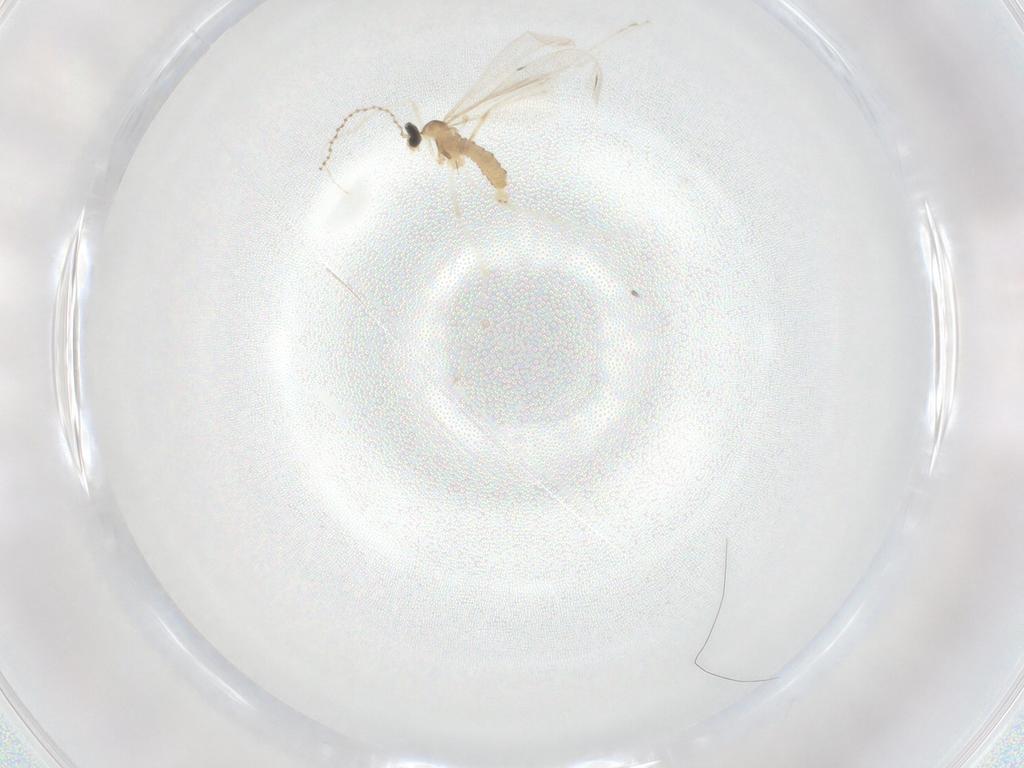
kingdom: Animalia
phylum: Arthropoda
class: Insecta
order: Diptera
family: Cecidomyiidae
